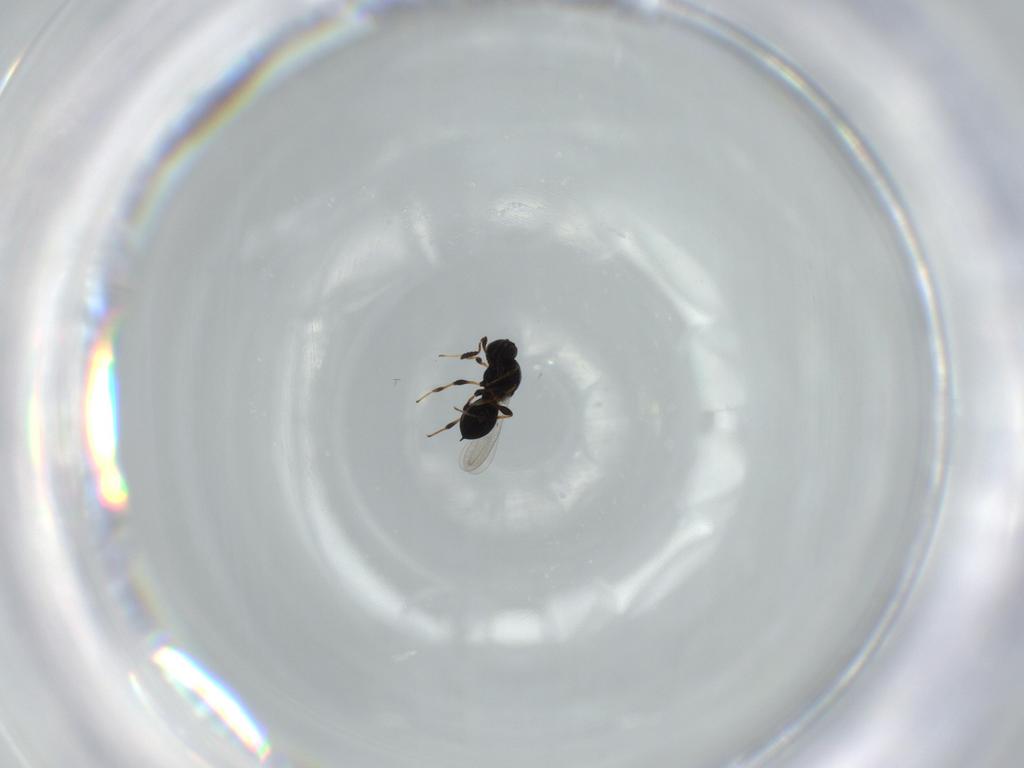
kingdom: Animalia
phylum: Arthropoda
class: Insecta
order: Hymenoptera
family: Platygastridae
